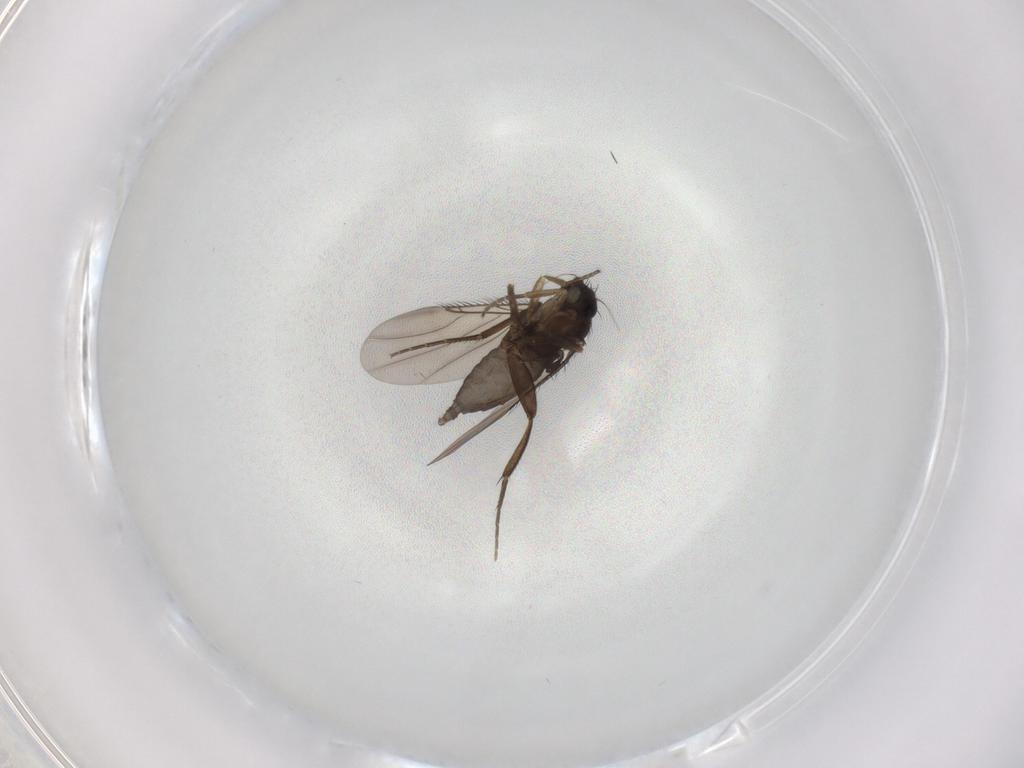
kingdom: Animalia
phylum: Arthropoda
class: Insecta
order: Diptera
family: Phoridae
